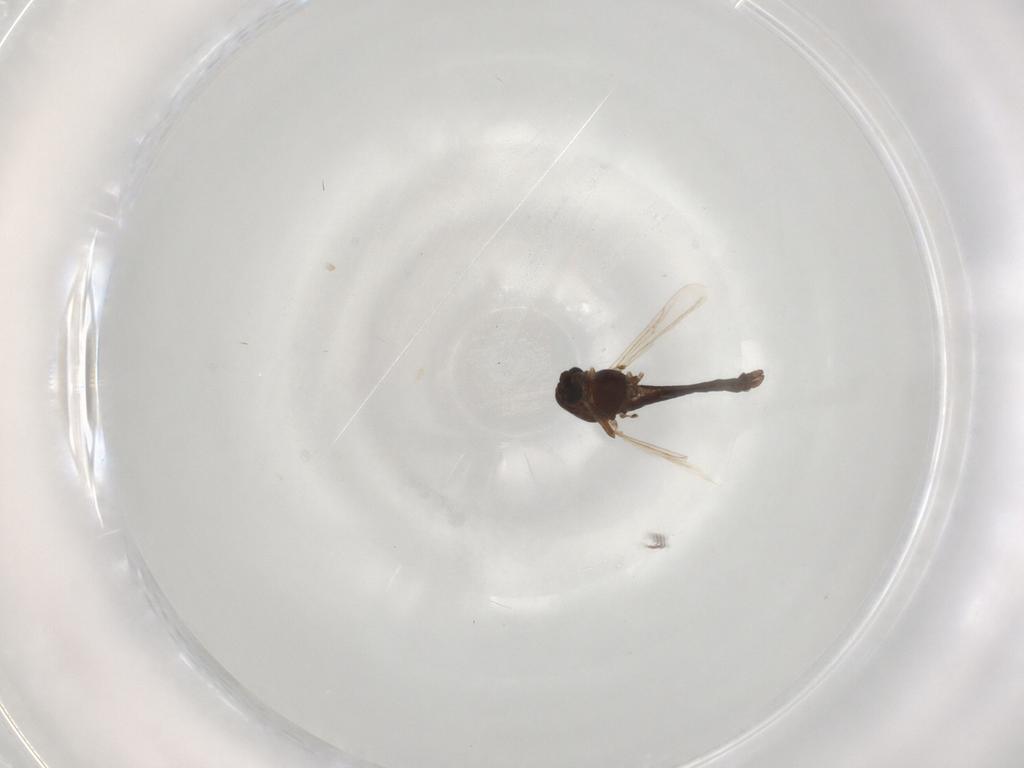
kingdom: Animalia
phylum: Arthropoda
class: Insecta
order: Diptera
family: Chironomidae
